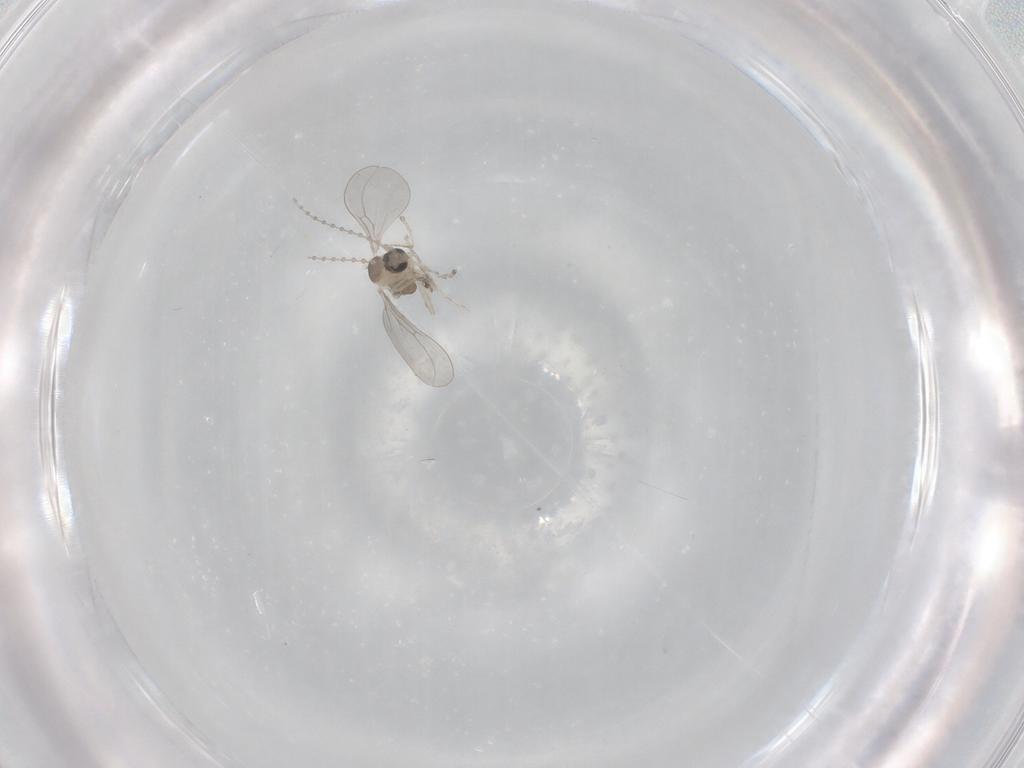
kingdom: Animalia
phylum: Arthropoda
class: Insecta
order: Diptera
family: Cecidomyiidae
